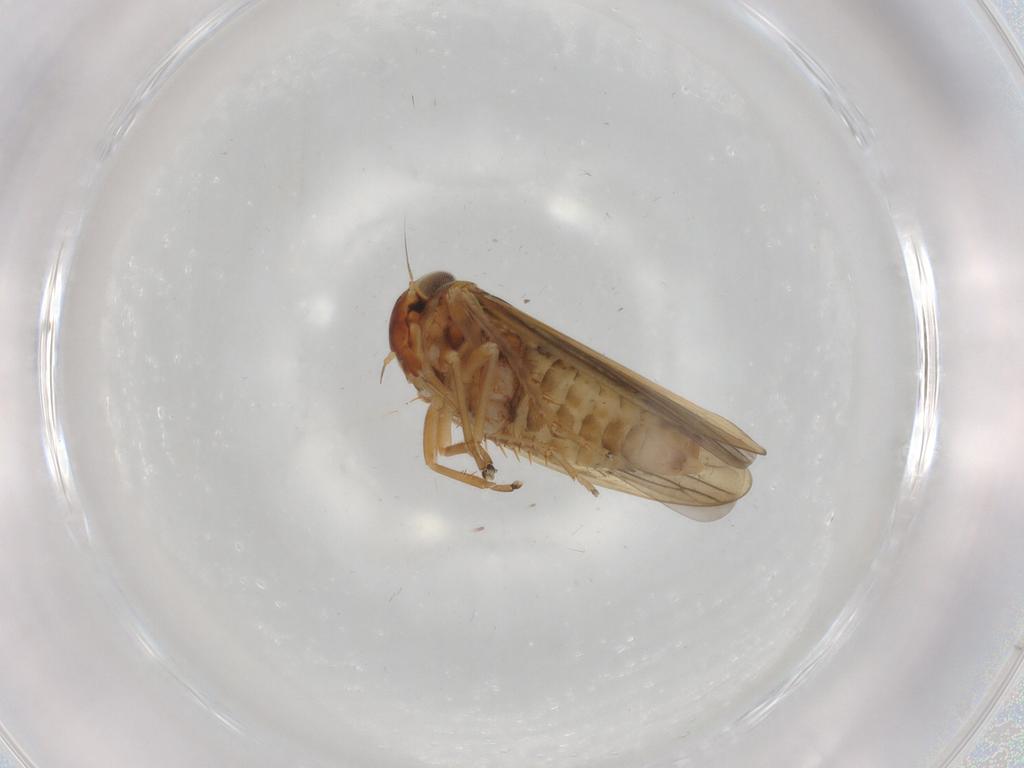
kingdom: Animalia
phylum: Arthropoda
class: Insecta
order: Hemiptera
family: Cicadellidae
